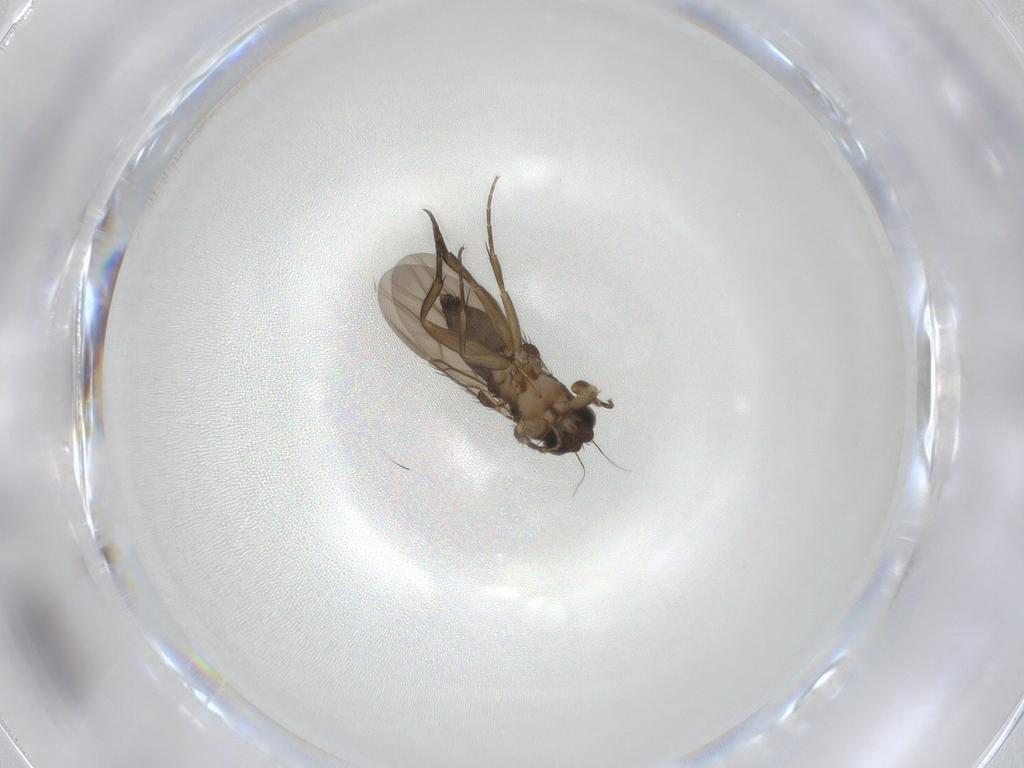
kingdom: Animalia
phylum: Arthropoda
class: Insecta
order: Diptera
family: Phoridae
